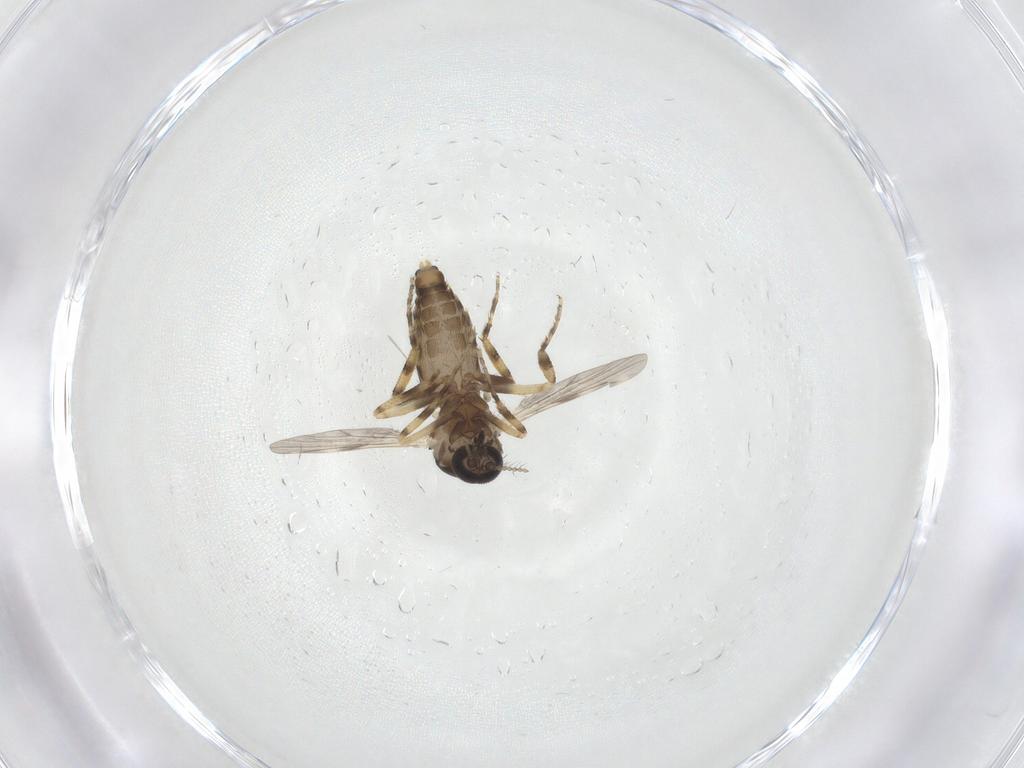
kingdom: Animalia
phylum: Arthropoda
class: Insecta
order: Diptera
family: Ceratopogonidae
